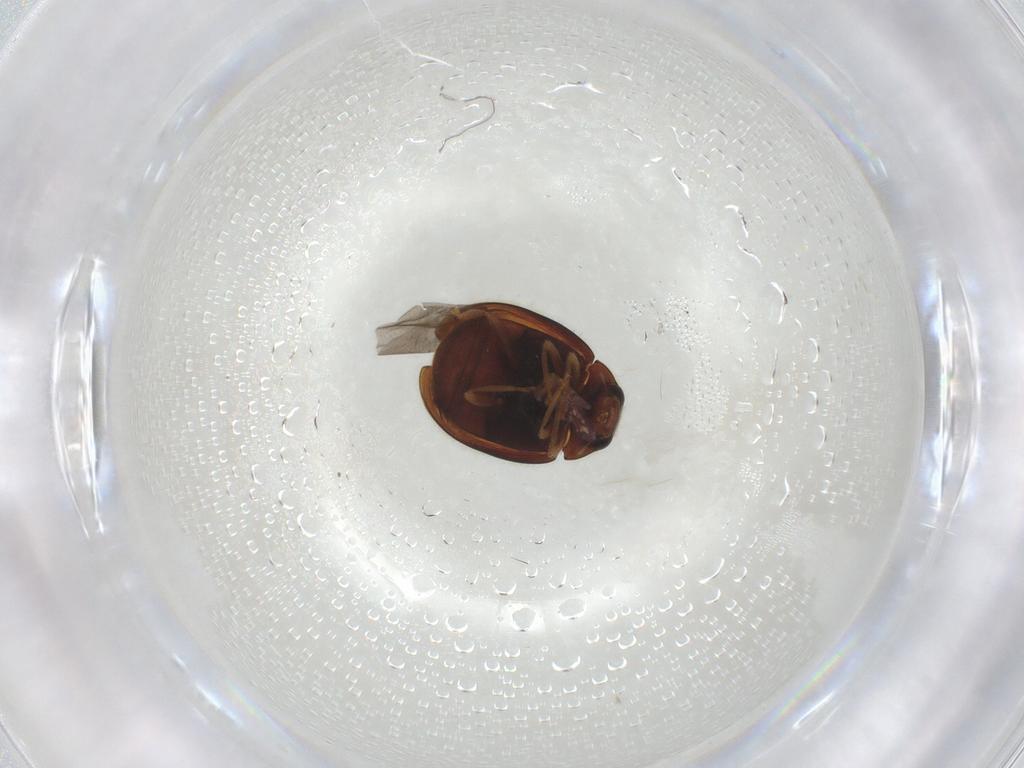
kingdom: Animalia
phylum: Arthropoda
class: Insecta
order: Coleoptera
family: Coccinellidae
